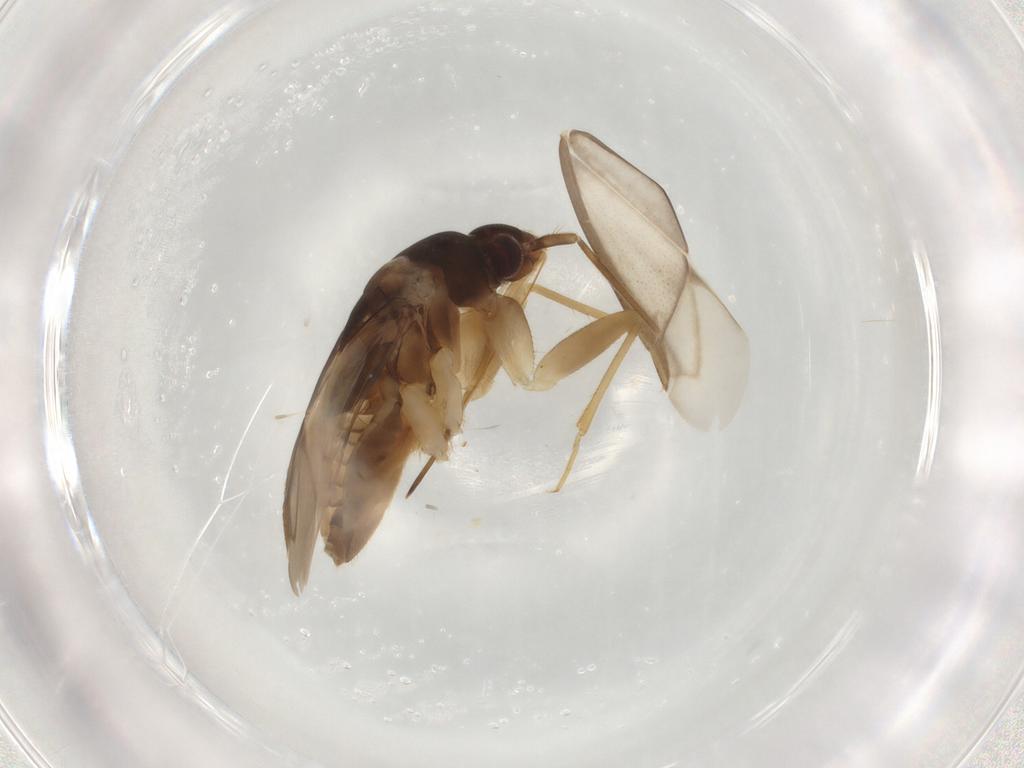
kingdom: Animalia
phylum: Arthropoda
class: Insecta
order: Hemiptera
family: Miridae
